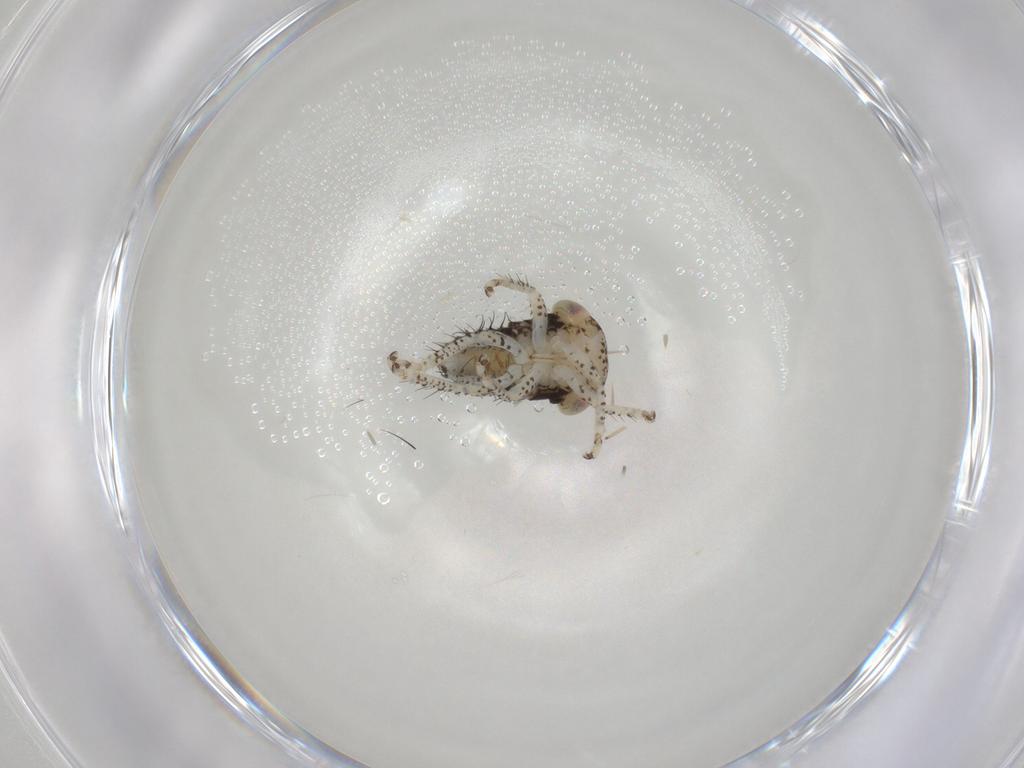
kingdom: Animalia
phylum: Arthropoda
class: Insecta
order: Hemiptera
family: Cicadellidae
